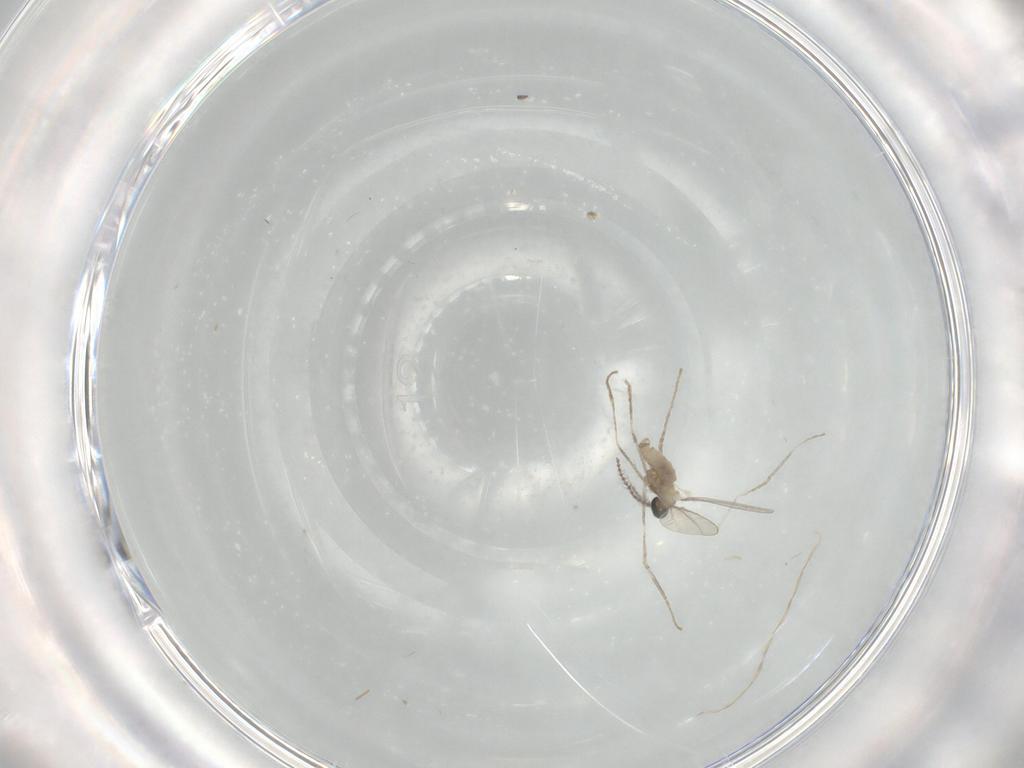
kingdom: Animalia
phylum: Arthropoda
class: Insecta
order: Diptera
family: Cecidomyiidae
